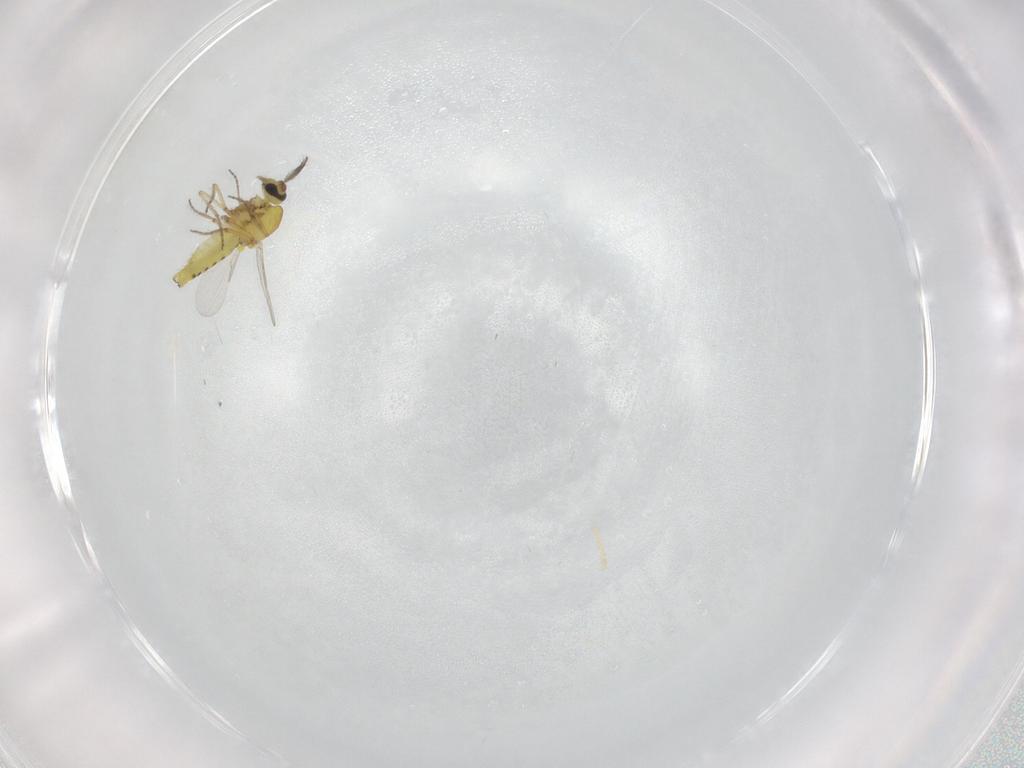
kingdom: Animalia
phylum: Arthropoda
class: Insecta
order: Diptera
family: Ceratopogonidae
